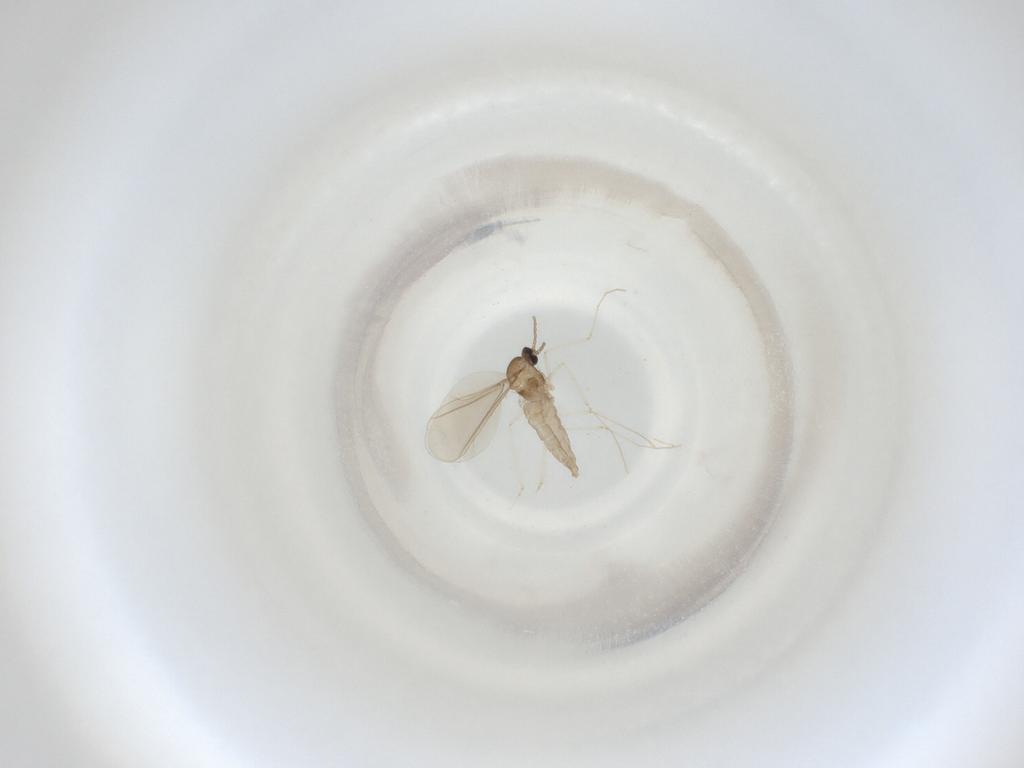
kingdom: Animalia
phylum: Arthropoda
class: Insecta
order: Diptera
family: Cecidomyiidae
